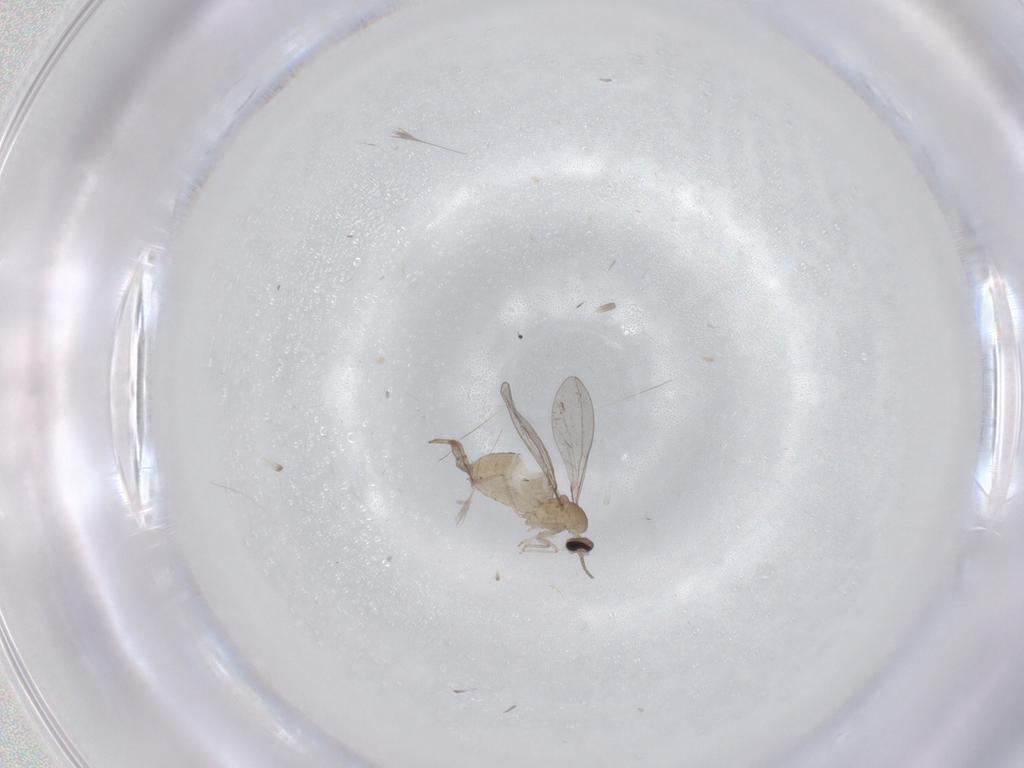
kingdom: Animalia
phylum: Arthropoda
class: Insecta
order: Diptera
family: Cecidomyiidae
